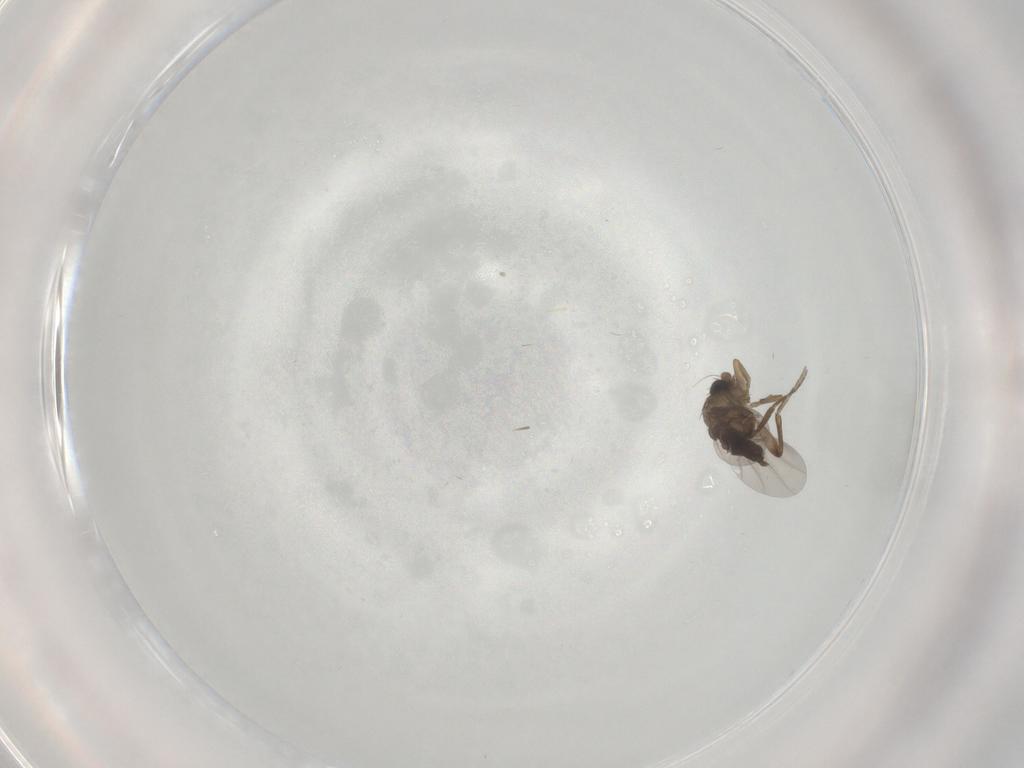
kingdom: Animalia
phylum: Arthropoda
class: Insecta
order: Diptera
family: Phoridae
